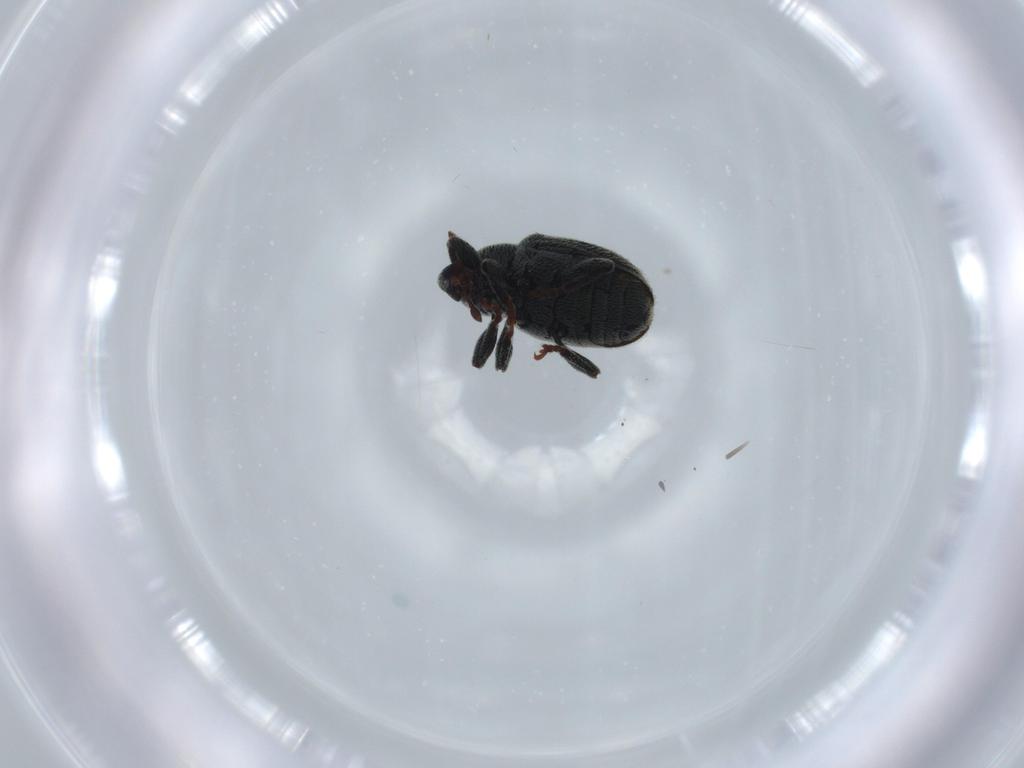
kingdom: Animalia
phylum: Arthropoda
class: Insecta
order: Coleoptera
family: Curculionidae
